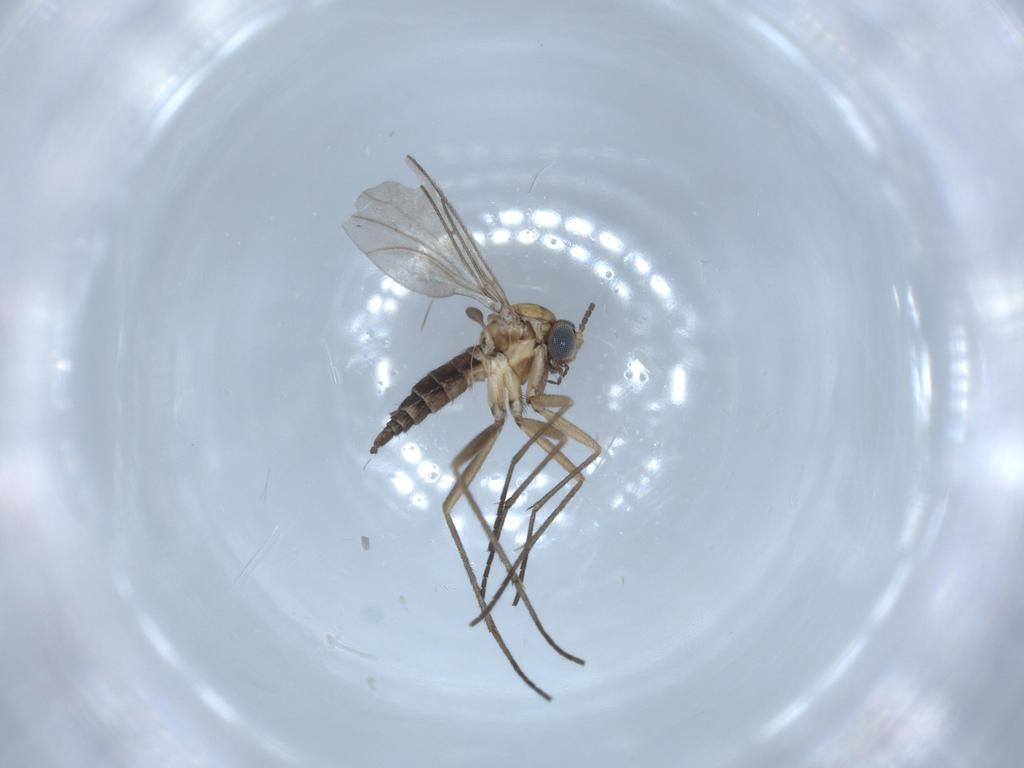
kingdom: Animalia
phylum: Arthropoda
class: Insecta
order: Diptera
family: Sciaridae
